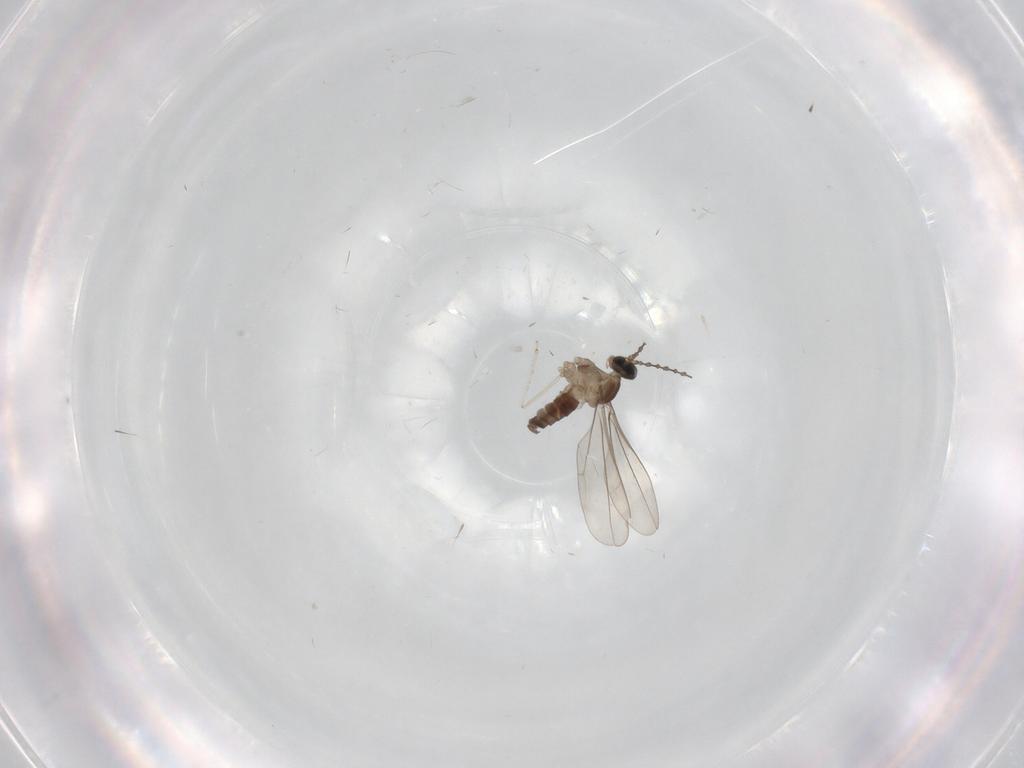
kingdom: Animalia
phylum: Arthropoda
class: Insecta
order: Diptera
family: Cecidomyiidae
